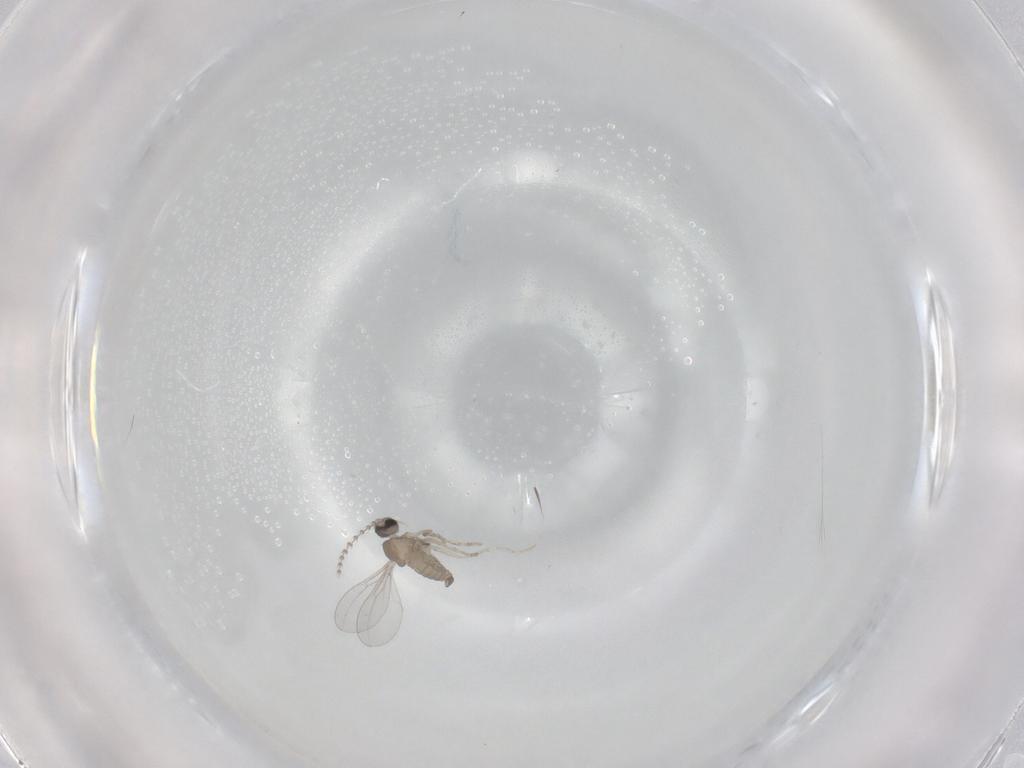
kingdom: Animalia
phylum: Arthropoda
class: Insecta
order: Diptera
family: Cecidomyiidae
